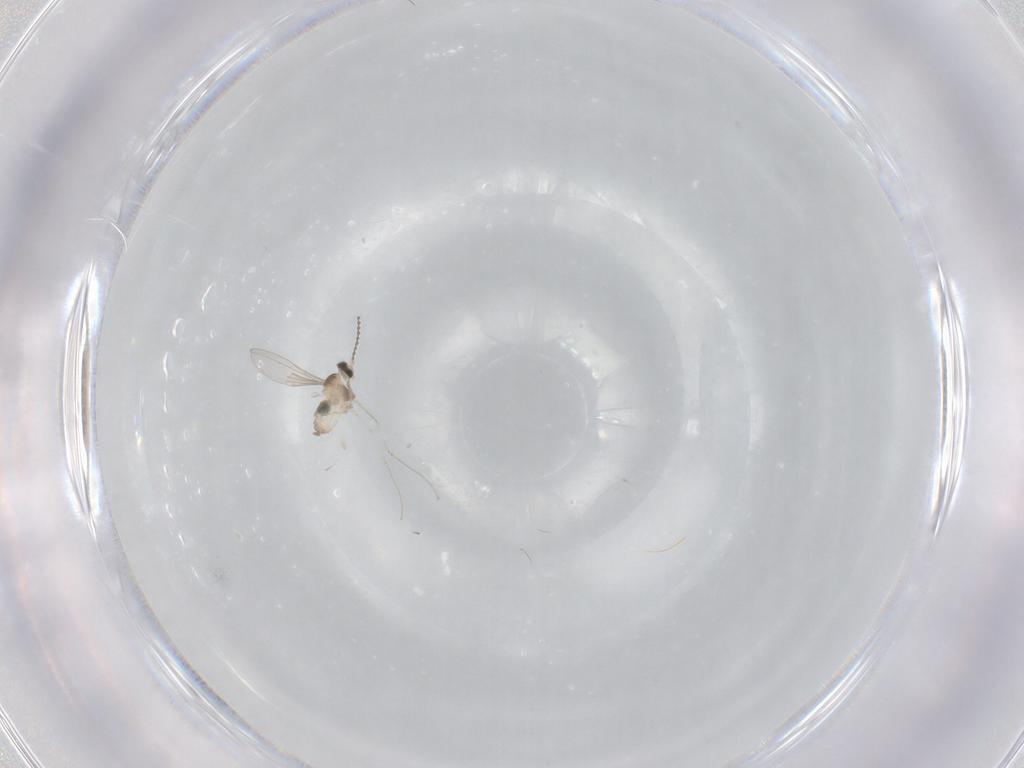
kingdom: Animalia
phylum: Arthropoda
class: Insecta
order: Diptera
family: Cecidomyiidae
